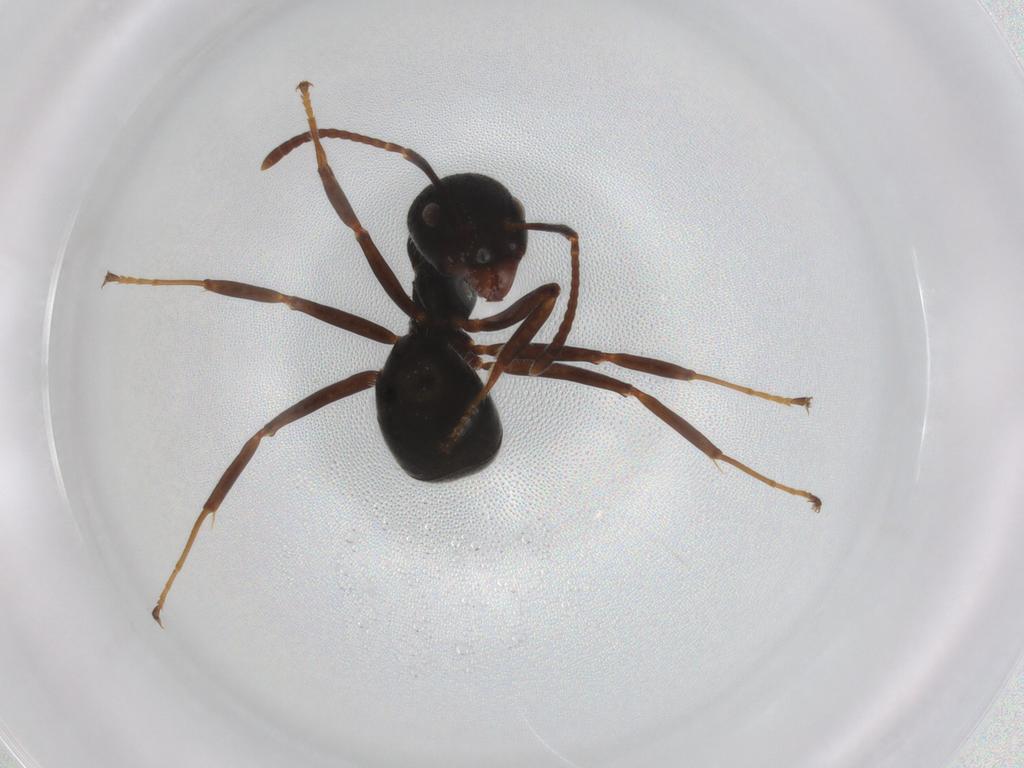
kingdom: Animalia
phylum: Arthropoda
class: Insecta
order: Hymenoptera
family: Formicidae
